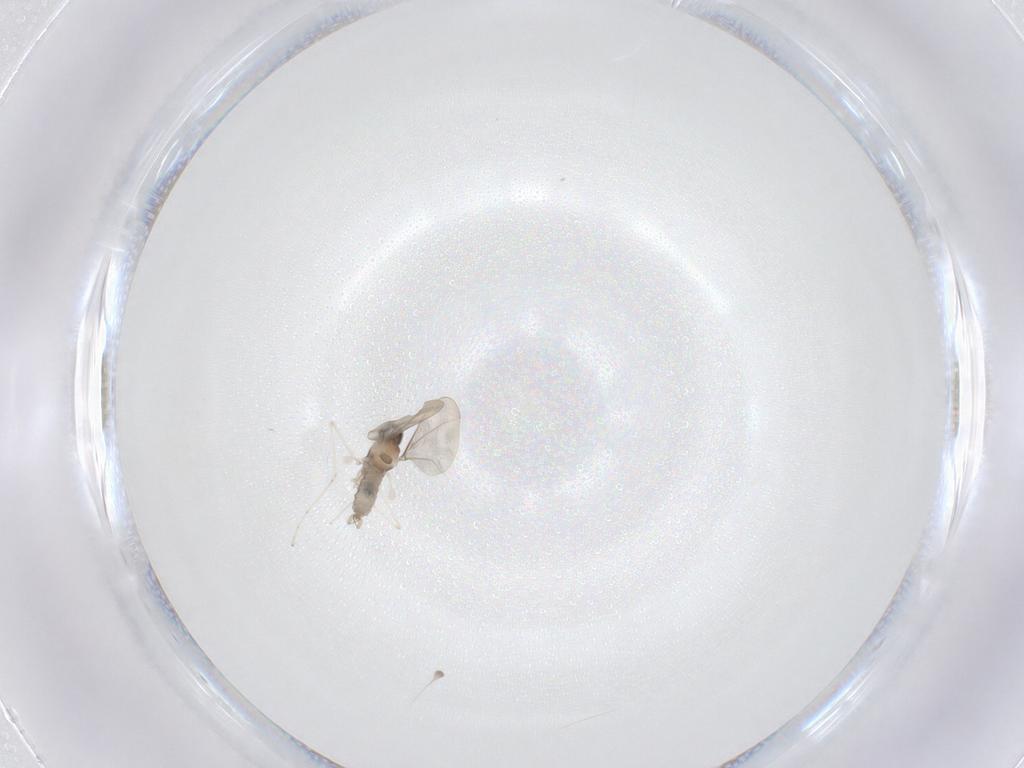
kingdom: Animalia
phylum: Arthropoda
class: Insecta
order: Diptera
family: Cecidomyiidae
